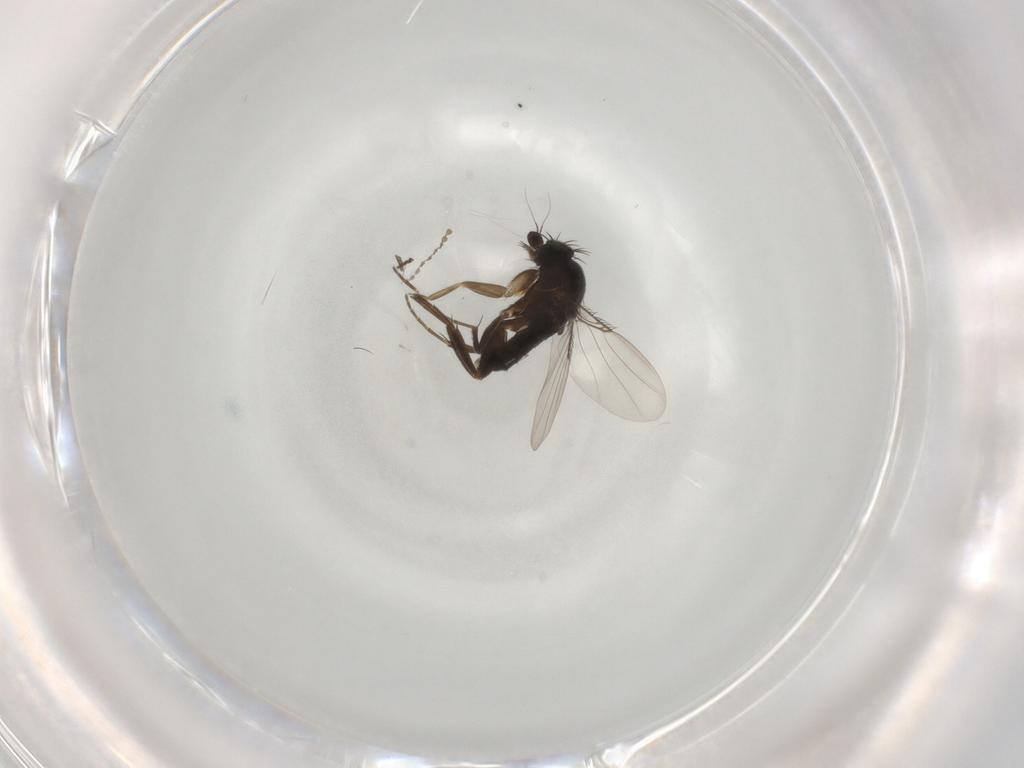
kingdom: Animalia
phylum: Arthropoda
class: Insecta
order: Diptera
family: Phoridae
